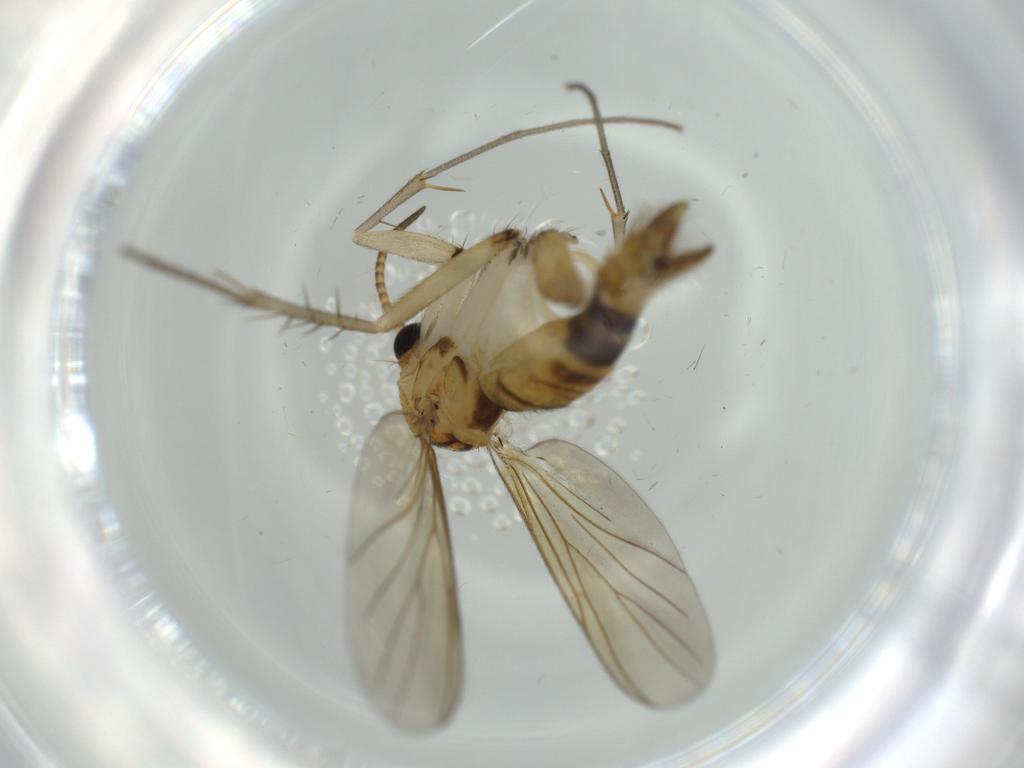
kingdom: Animalia
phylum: Arthropoda
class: Insecta
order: Diptera
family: Mycetophilidae
